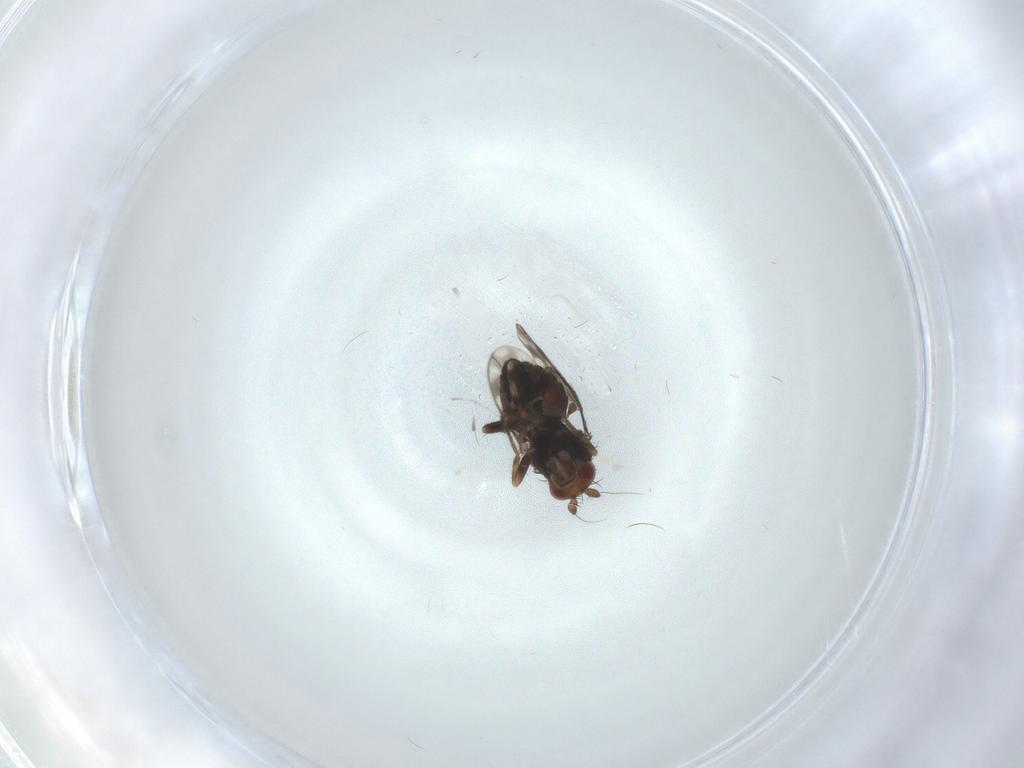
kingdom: Animalia
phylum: Arthropoda
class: Insecta
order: Diptera
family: Sphaeroceridae
